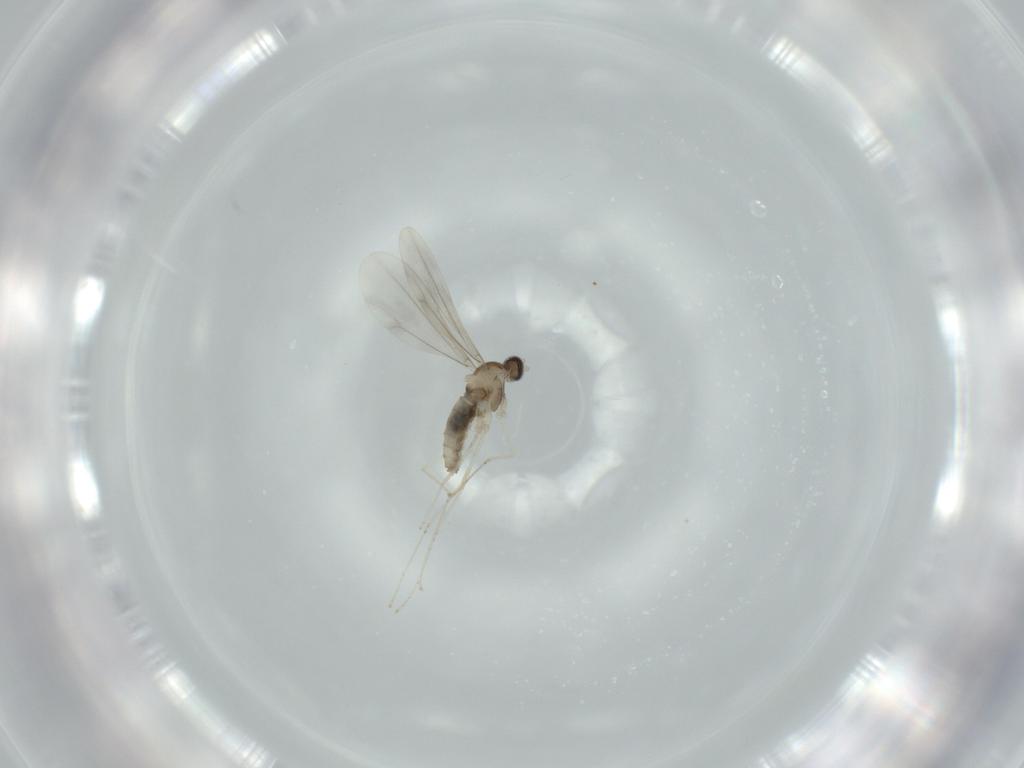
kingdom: Animalia
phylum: Arthropoda
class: Insecta
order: Diptera
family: Cecidomyiidae
